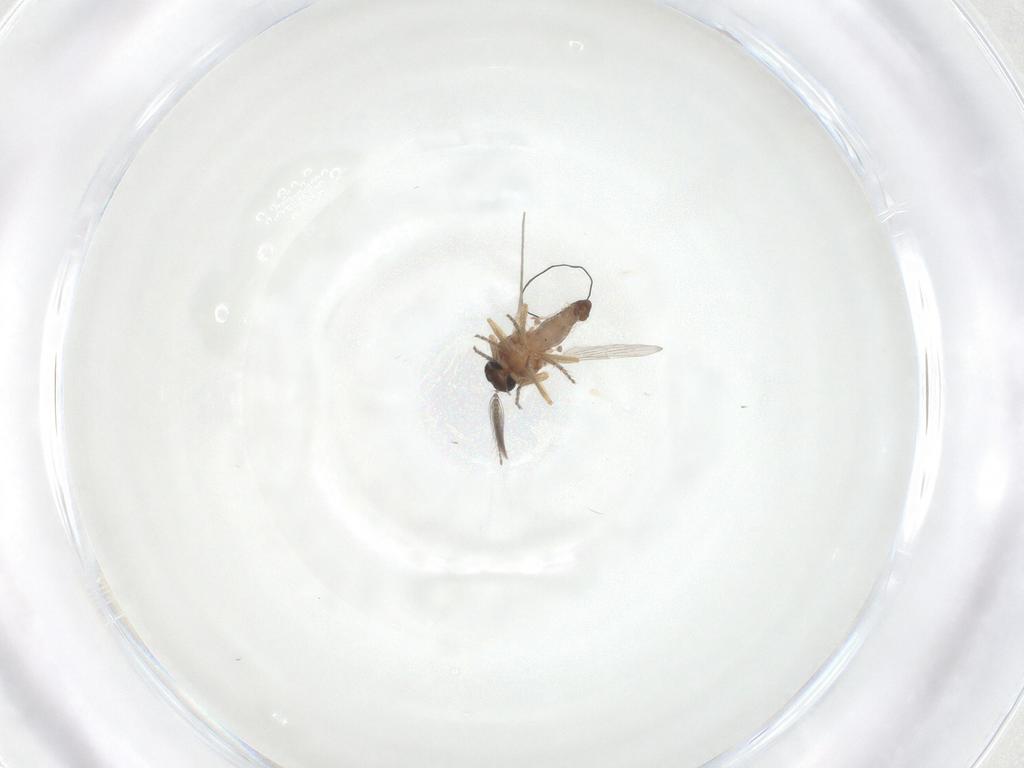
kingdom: Animalia
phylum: Arthropoda
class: Insecta
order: Diptera
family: Ceratopogonidae
